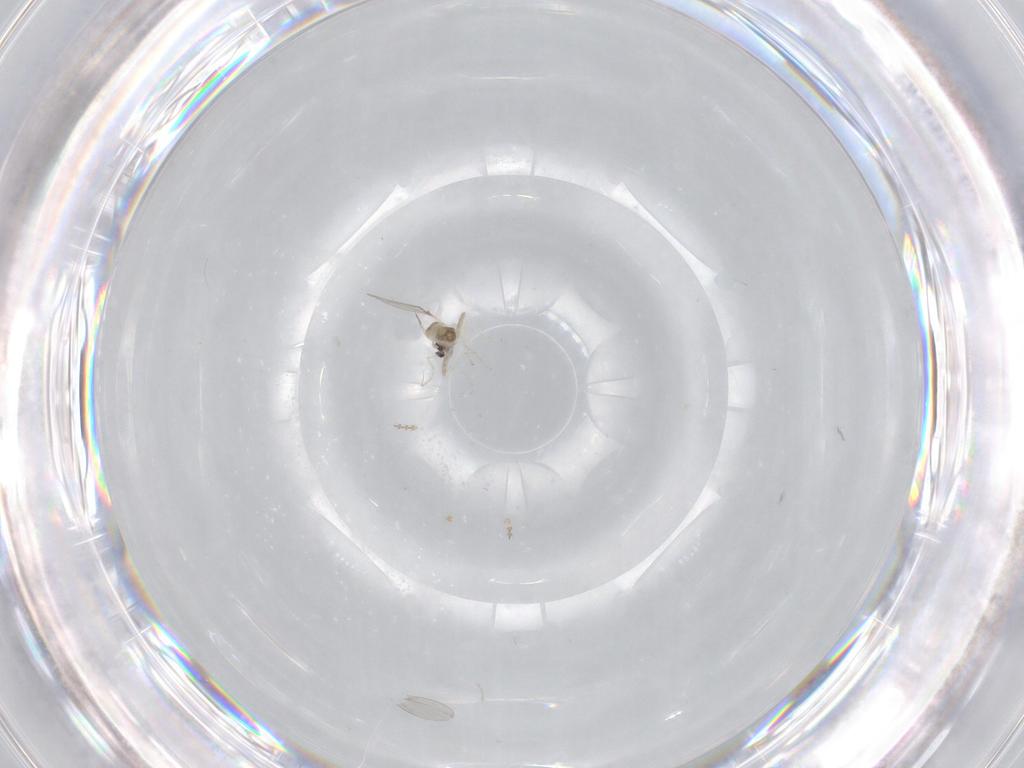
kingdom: Animalia
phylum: Arthropoda
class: Insecta
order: Diptera
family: Cecidomyiidae
